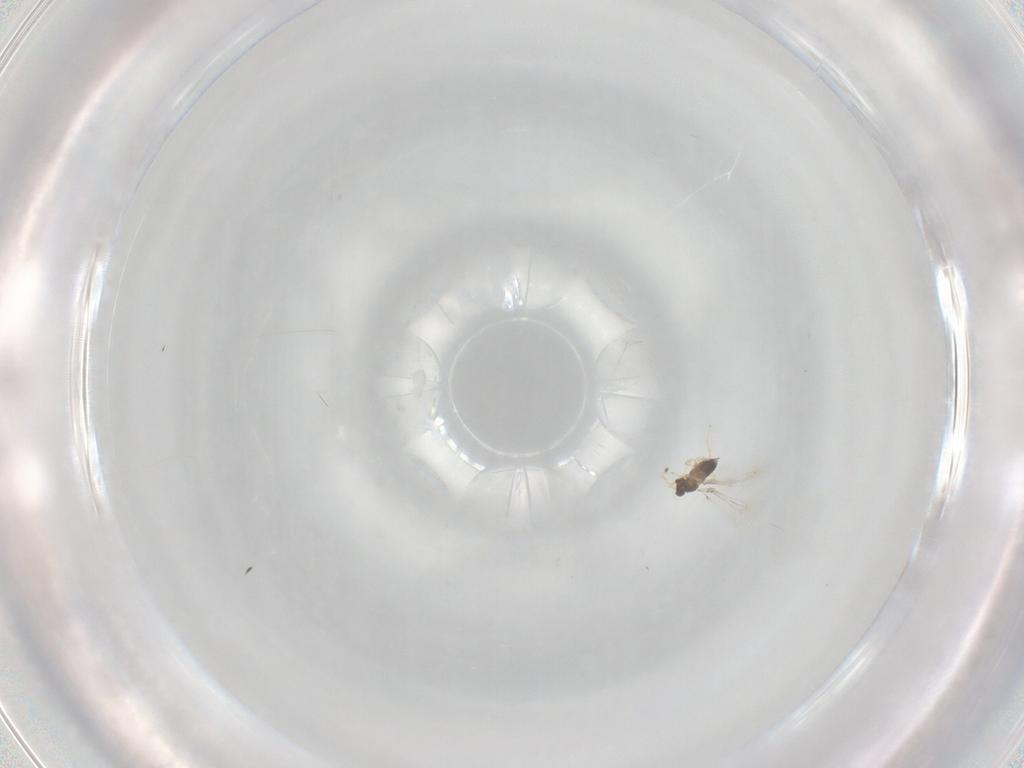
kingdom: Animalia
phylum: Arthropoda
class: Insecta
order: Hymenoptera
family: Mymaridae
